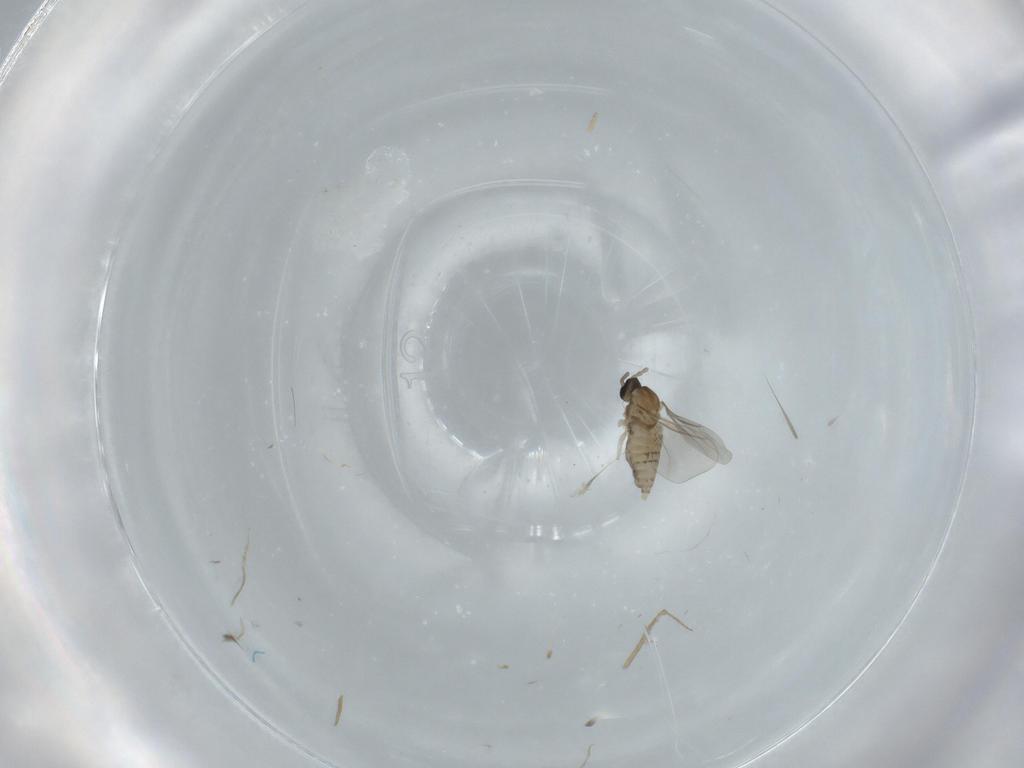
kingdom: Animalia
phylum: Arthropoda
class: Insecta
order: Diptera
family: Cecidomyiidae
